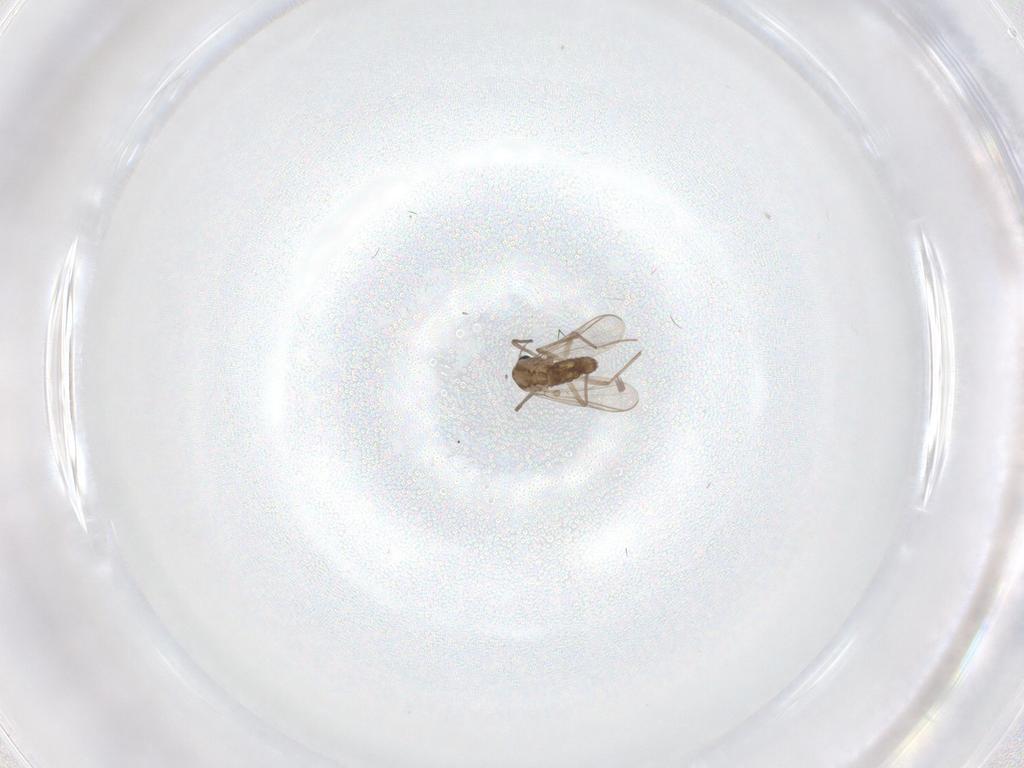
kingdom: Animalia
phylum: Arthropoda
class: Insecta
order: Diptera
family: Chironomidae
